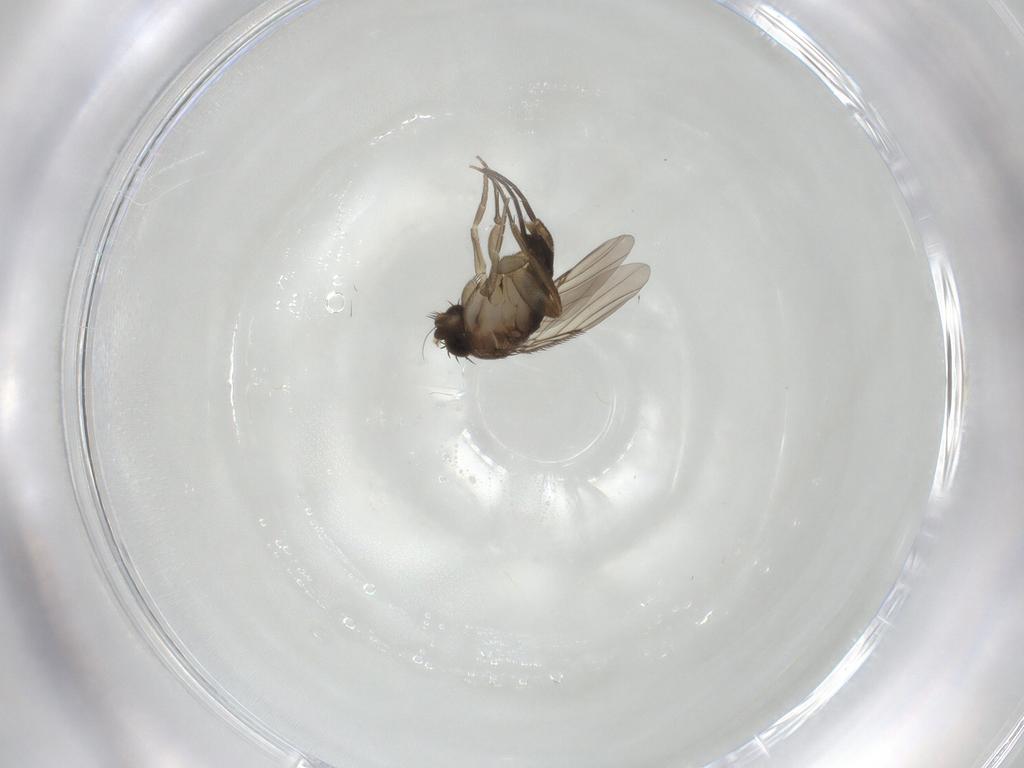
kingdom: Animalia
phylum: Arthropoda
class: Insecta
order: Diptera
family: Phoridae
